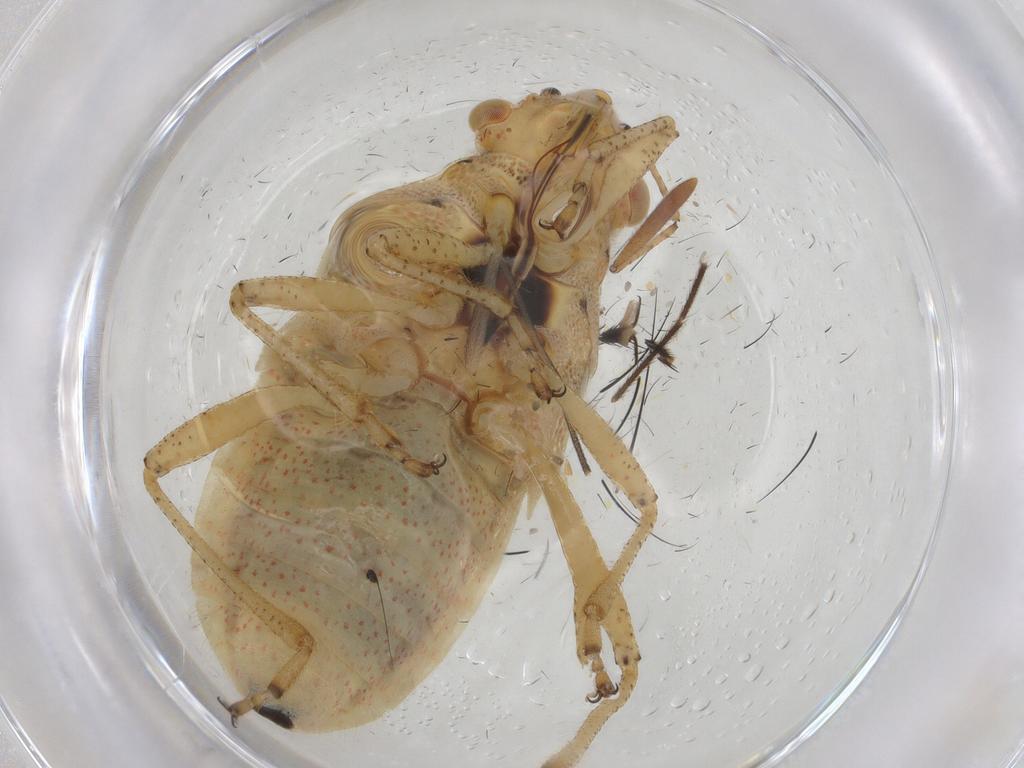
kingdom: Animalia
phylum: Arthropoda
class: Insecta
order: Hemiptera
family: Rhopalidae
